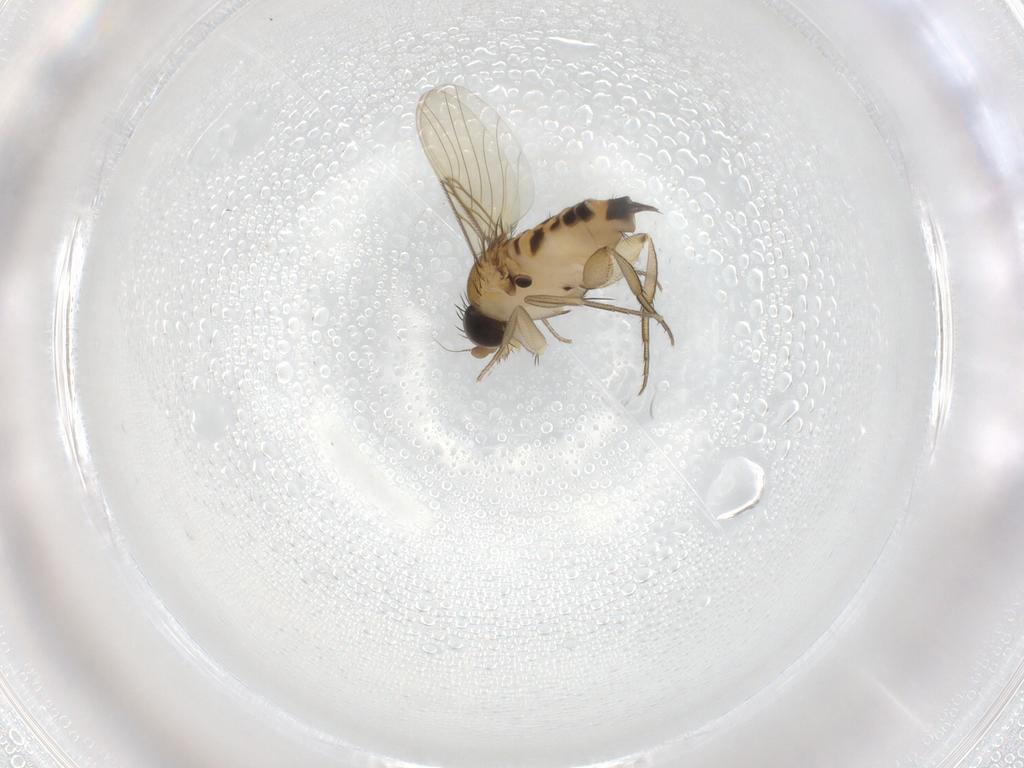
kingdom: Animalia
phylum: Arthropoda
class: Insecta
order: Diptera
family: Phoridae
